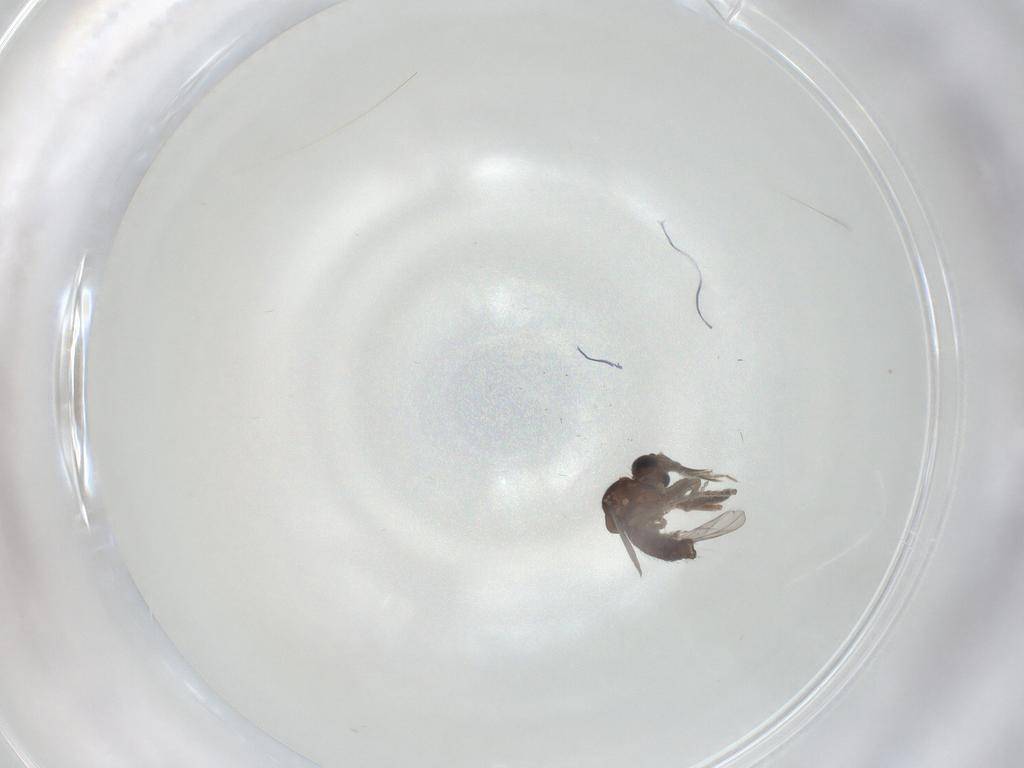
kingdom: Animalia
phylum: Arthropoda
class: Insecta
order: Diptera
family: Ceratopogonidae
